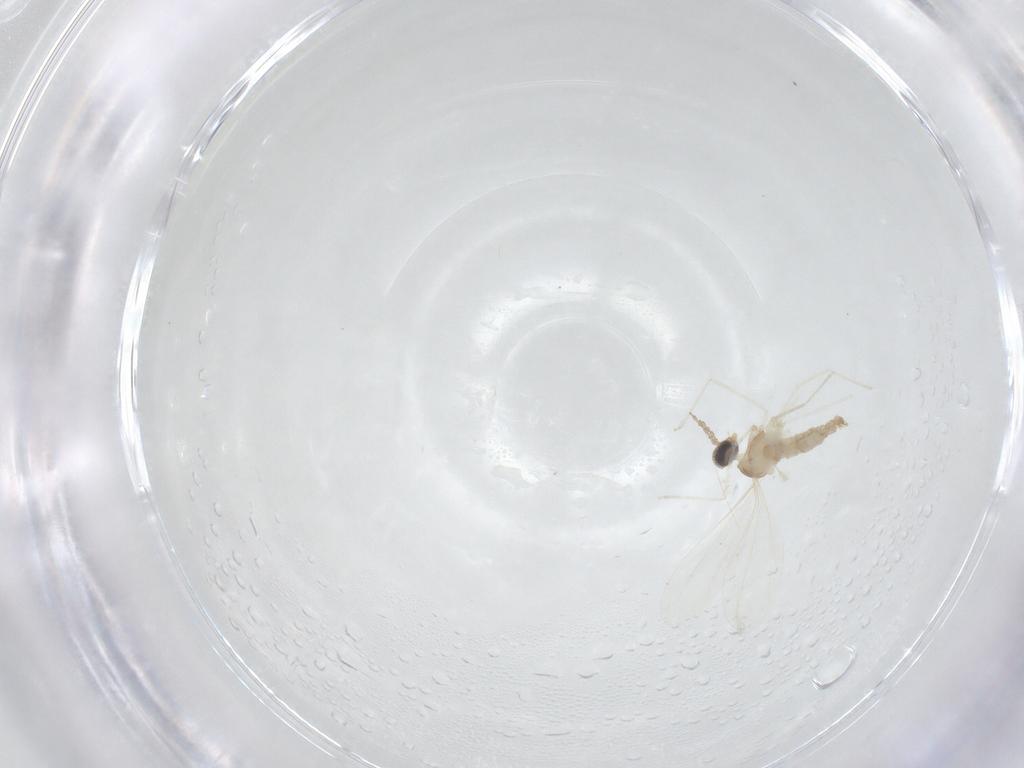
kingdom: Animalia
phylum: Arthropoda
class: Insecta
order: Diptera
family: Cecidomyiidae
